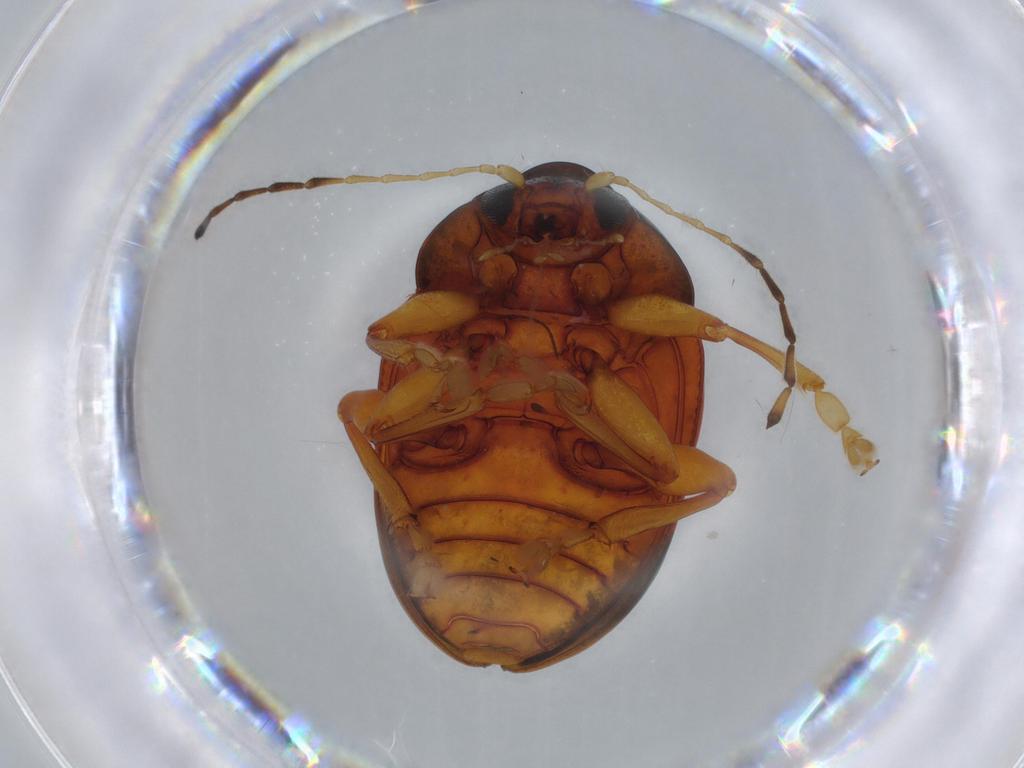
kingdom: Animalia
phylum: Arthropoda
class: Insecta
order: Coleoptera
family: Chrysomelidae
